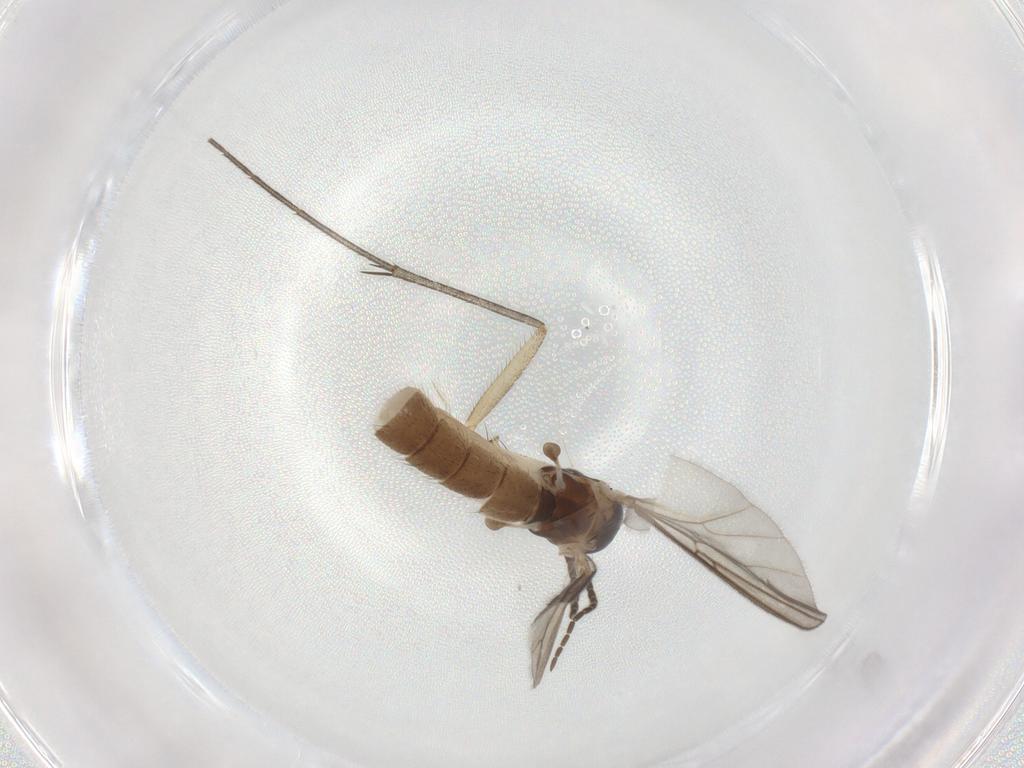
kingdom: Animalia
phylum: Arthropoda
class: Insecta
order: Diptera
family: Mycetophilidae
